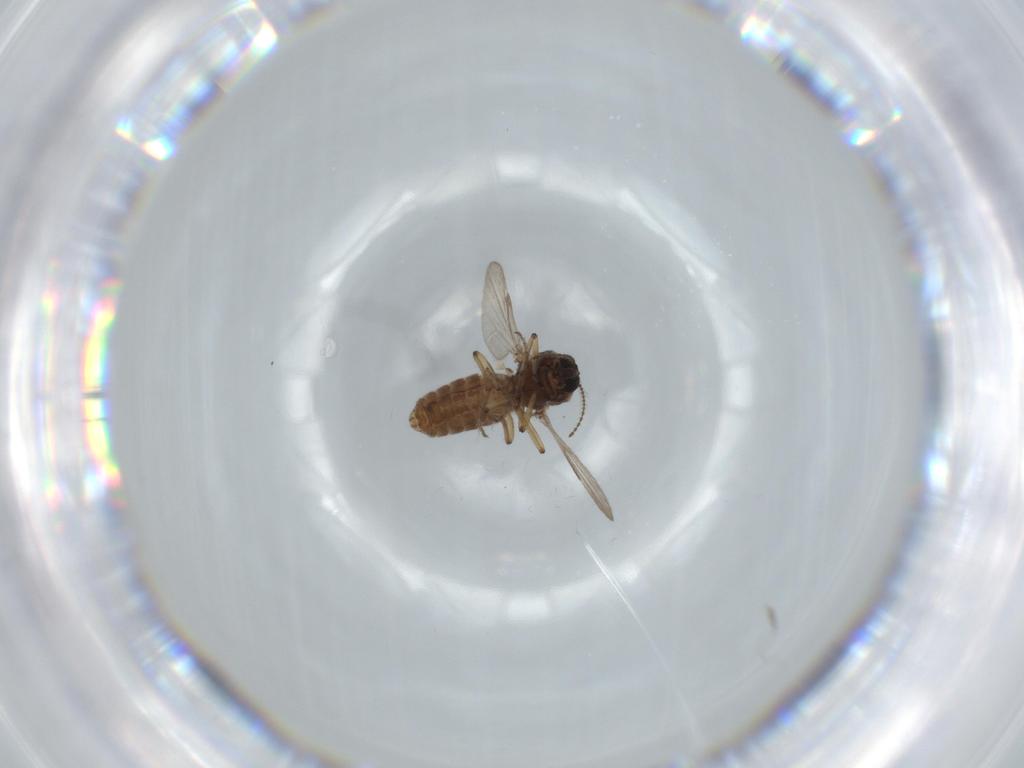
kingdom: Animalia
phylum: Arthropoda
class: Insecta
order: Diptera
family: Chironomidae
